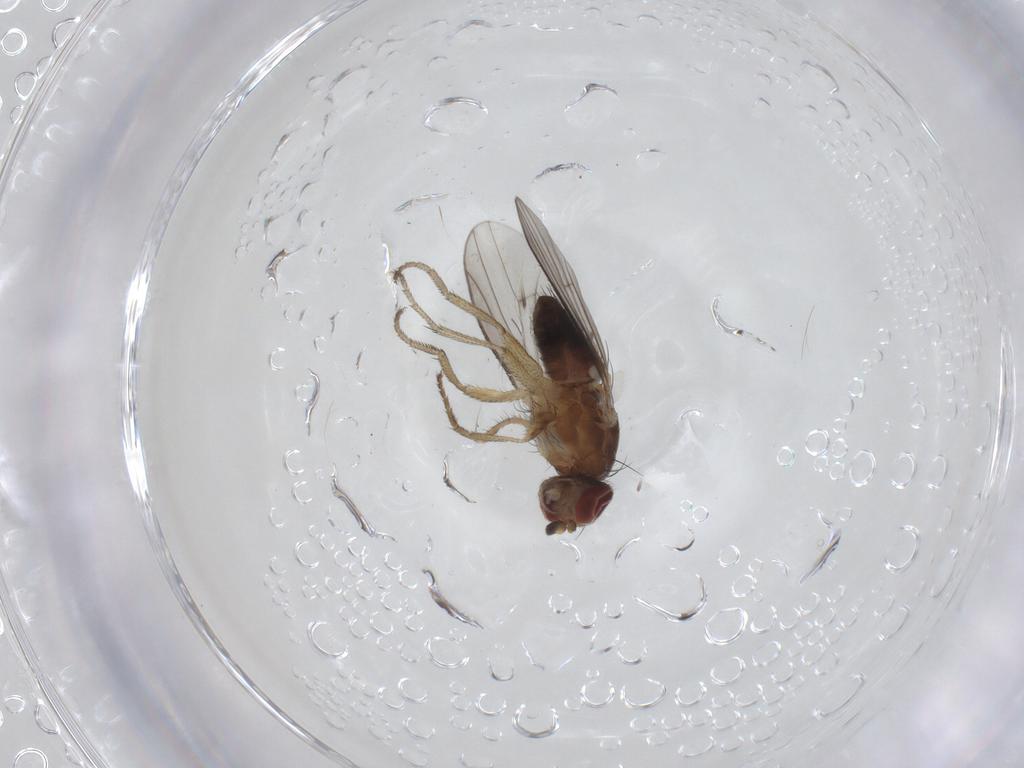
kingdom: Animalia
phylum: Arthropoda
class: Insecta
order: Diptera
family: Heleomyzidae
